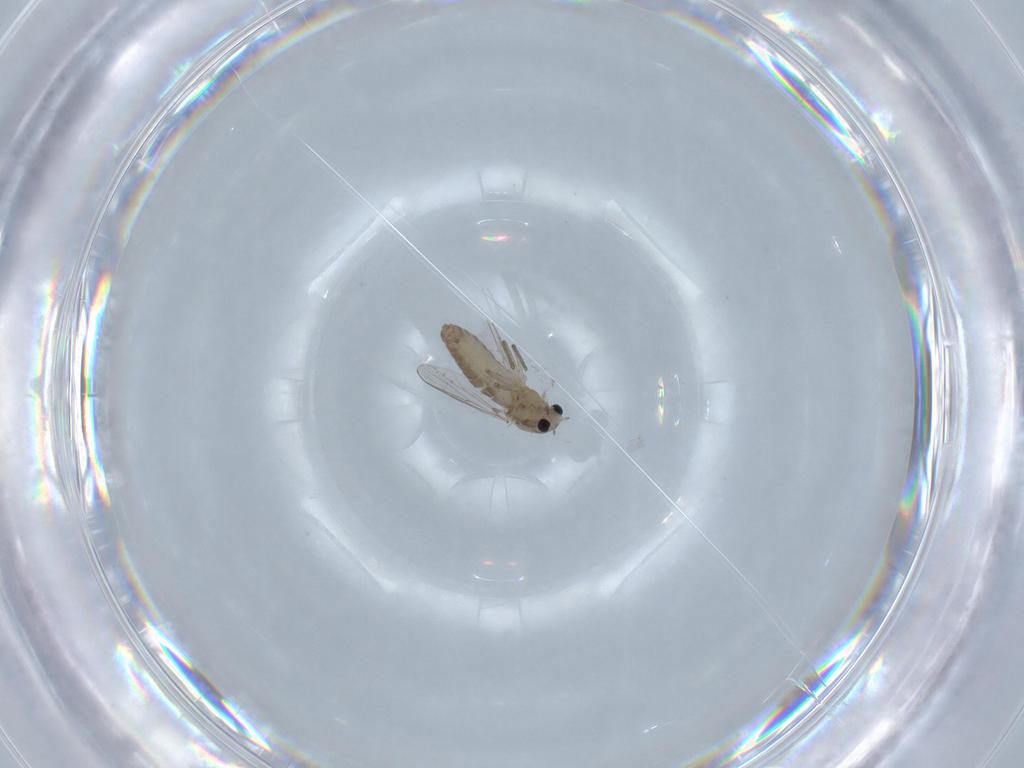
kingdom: Animalia
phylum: Arthropoda
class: Insecta
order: Diptera
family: Chironomidae
